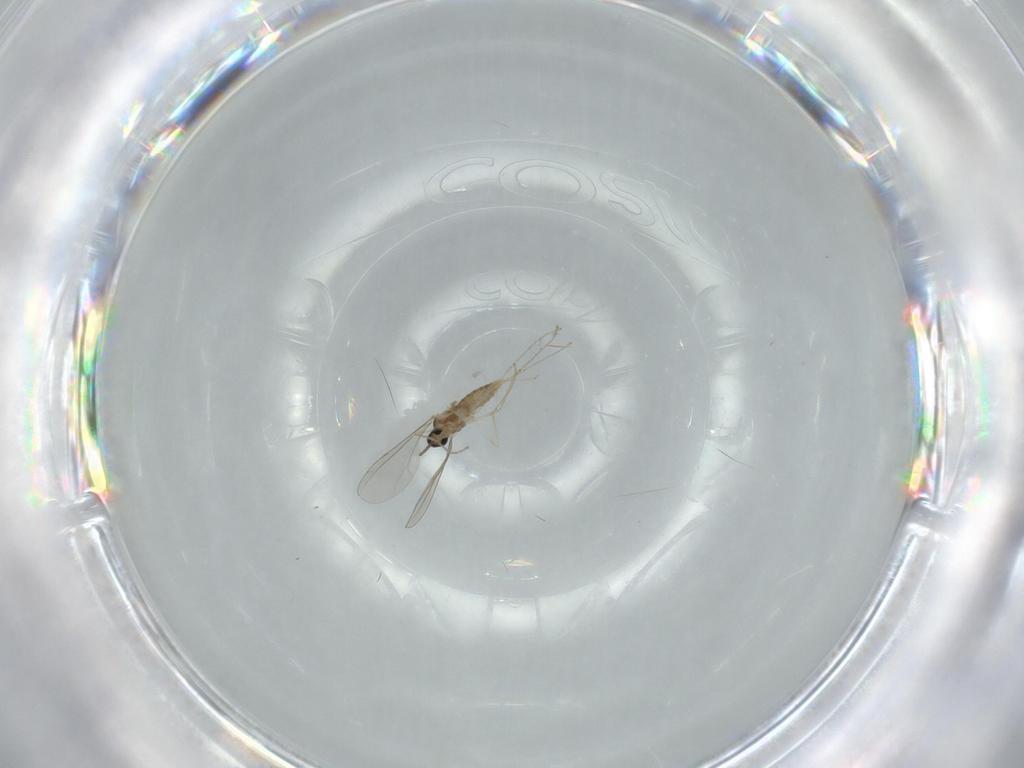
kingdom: Animalia
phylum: Arthropoda
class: Insecta
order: Diptera
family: Cecidomyiidae
